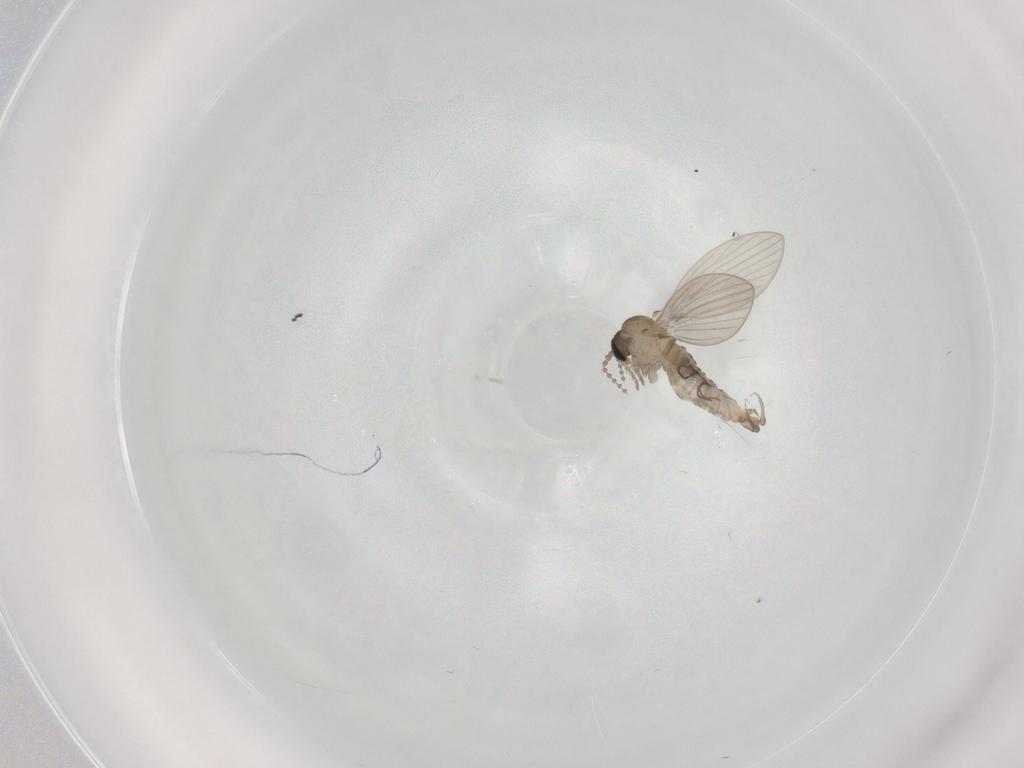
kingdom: Animalia
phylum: Arthropoda
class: Insecta
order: Diptera
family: Psychodidae
